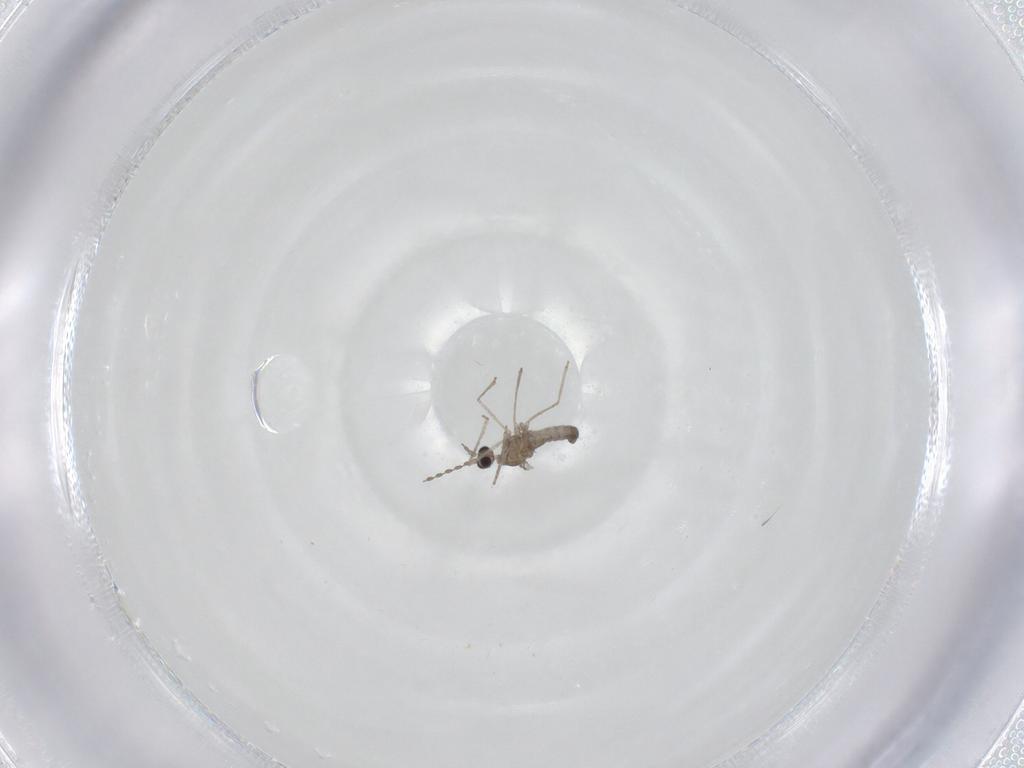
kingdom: Animalia
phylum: Arthropoda
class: Insecta
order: Diptera
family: Cecidomyiidae
